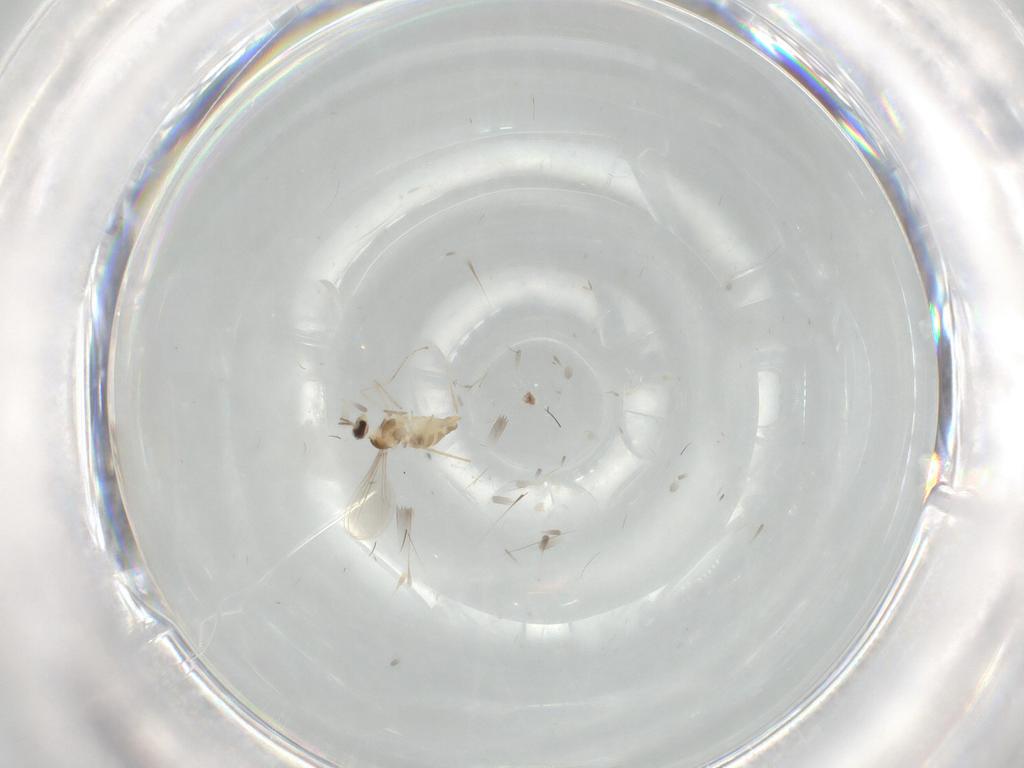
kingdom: Animalia
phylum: Arthropoda
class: Insecta
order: Diptera
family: Cecidomyiidae
